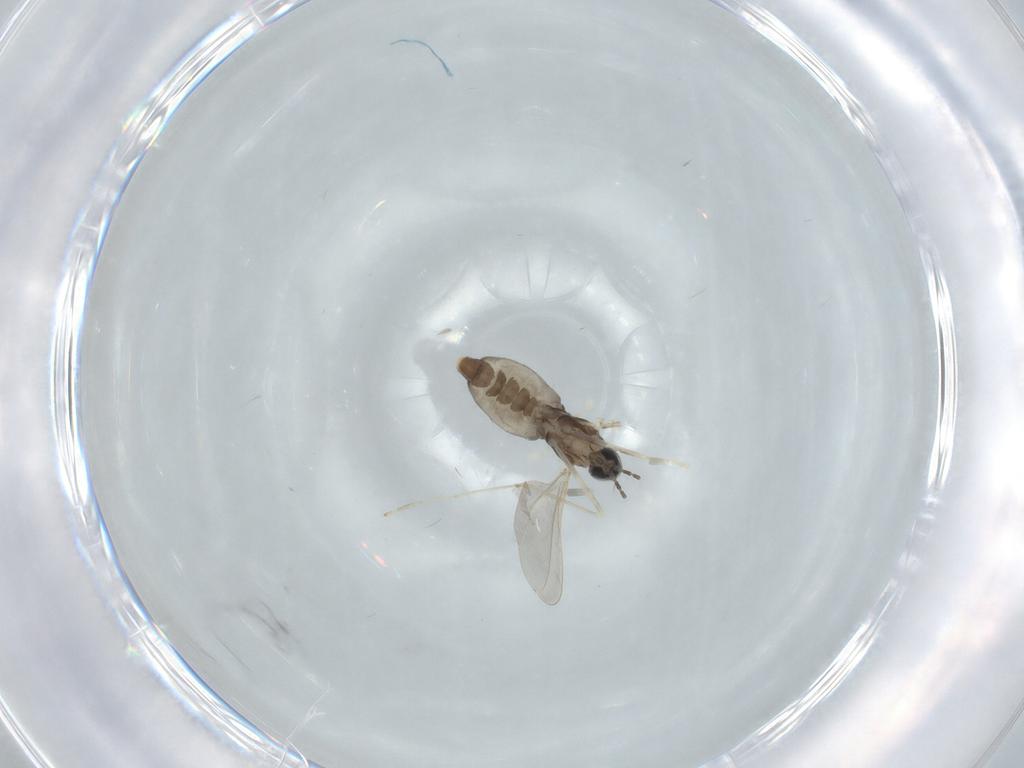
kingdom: Animalia
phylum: Arthropoda
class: Insecta
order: Diptera
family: Cecidomyiidae
